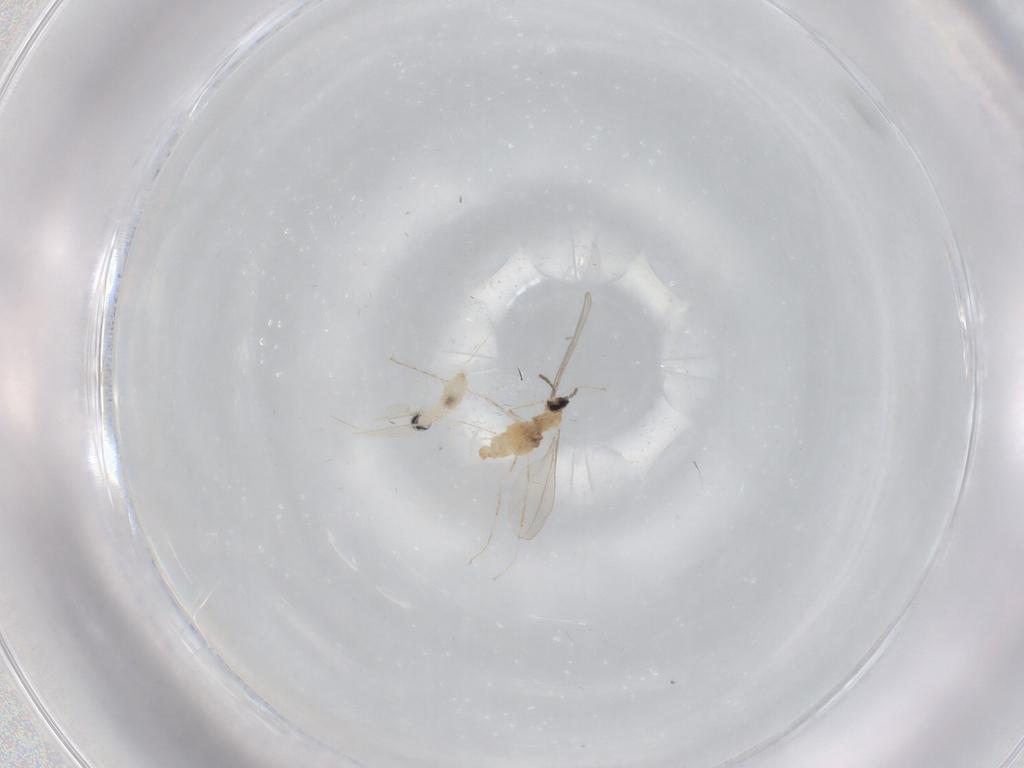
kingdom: Animalia
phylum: Arthropoda
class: Insecta
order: Diptera
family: Cecidomyiidae
